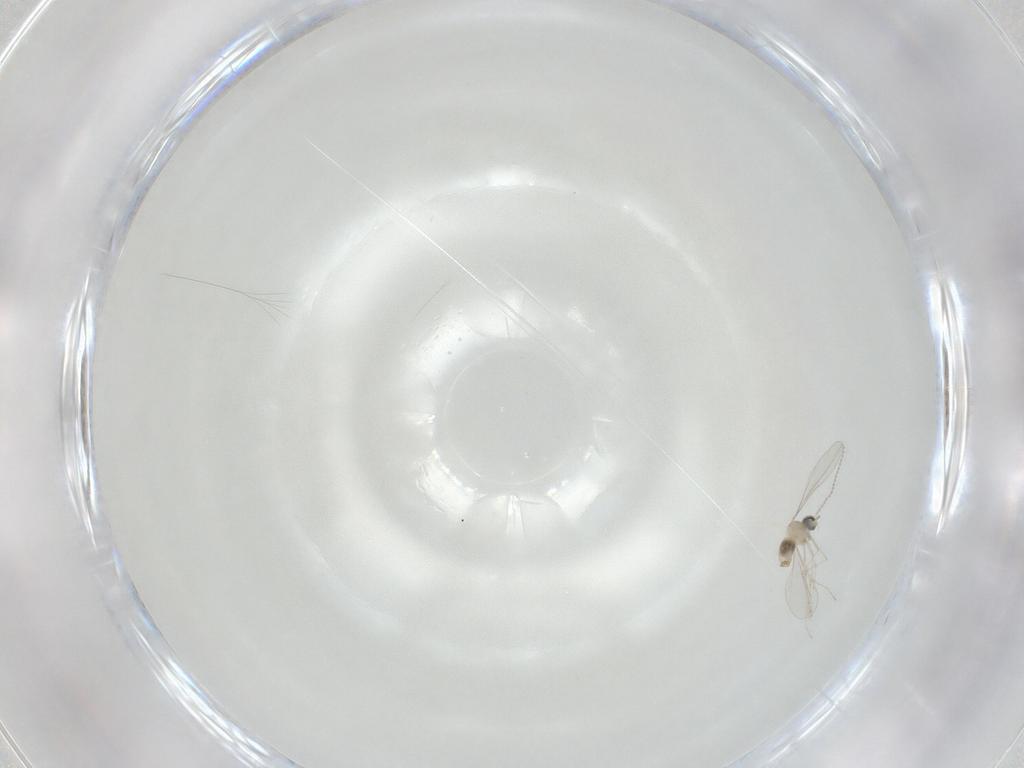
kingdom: Animalia
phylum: Arthropoda
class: Insecta
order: Diptera
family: Cecidomyiidae
